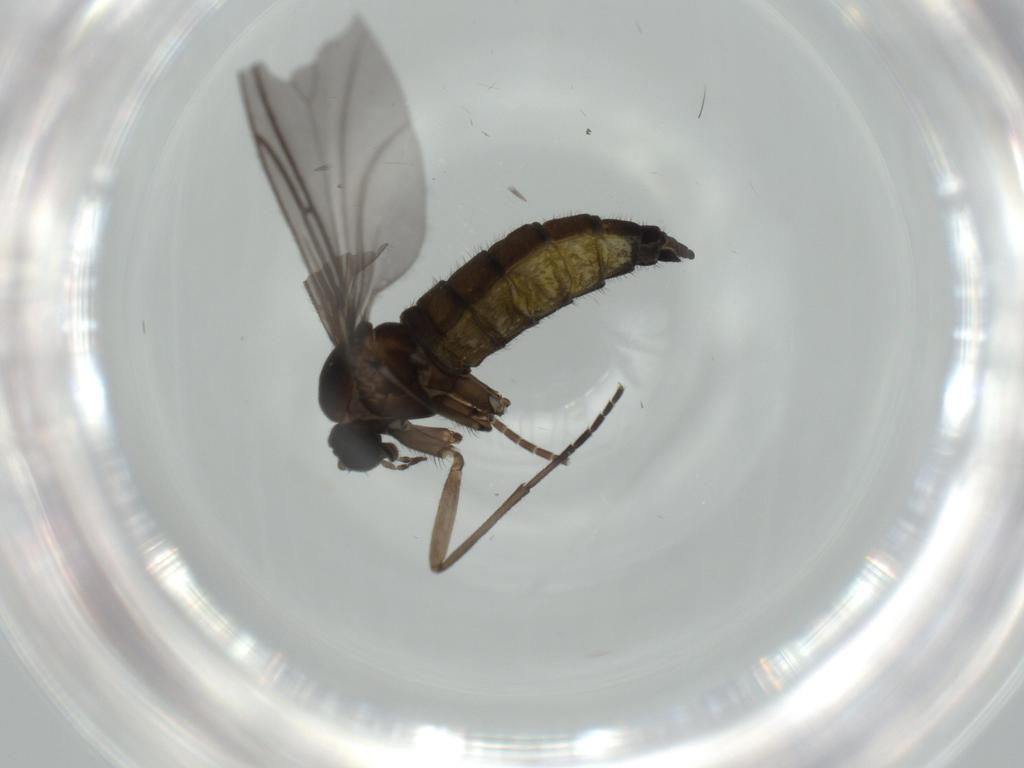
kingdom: Animalia
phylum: Arthropoda
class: Insecta
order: Diptera
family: Sciaridae
